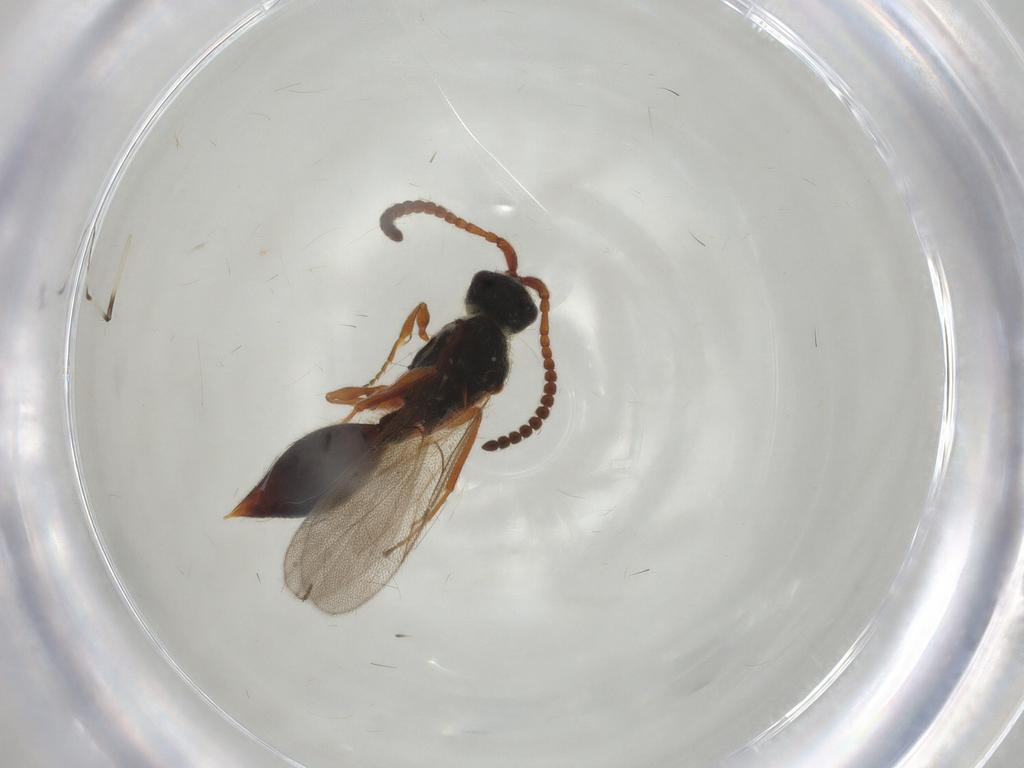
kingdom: Animalia
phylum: Arthropoda
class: Insecta
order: Hymenoptera
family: Diapriidae
